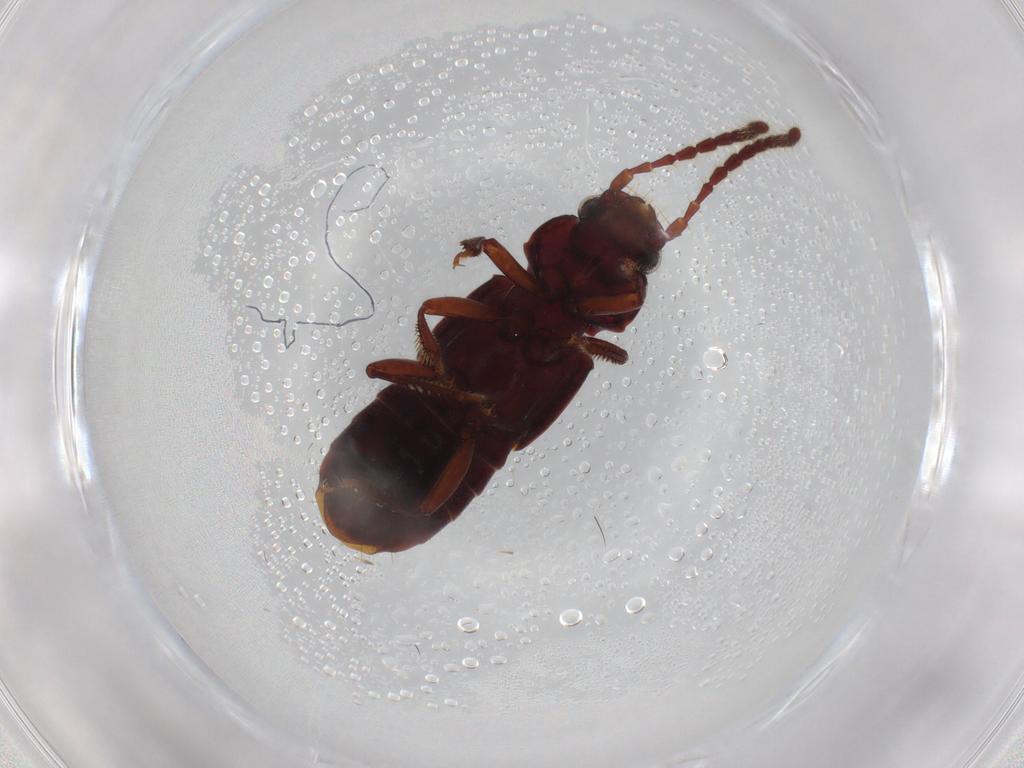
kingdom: Animalia
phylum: Arthropoda
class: Insecta
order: Coleoptera
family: Staphylinidae
